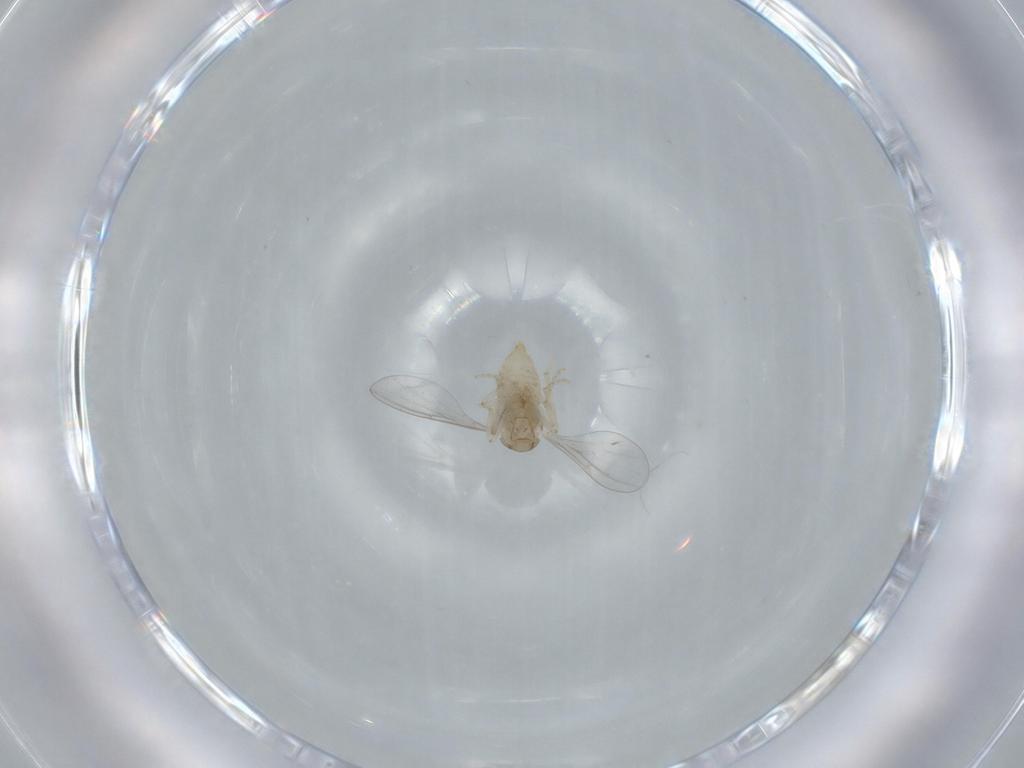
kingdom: Animalia
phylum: Arthropoda
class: Insecta
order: Diptera
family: Cecidomyiidae
